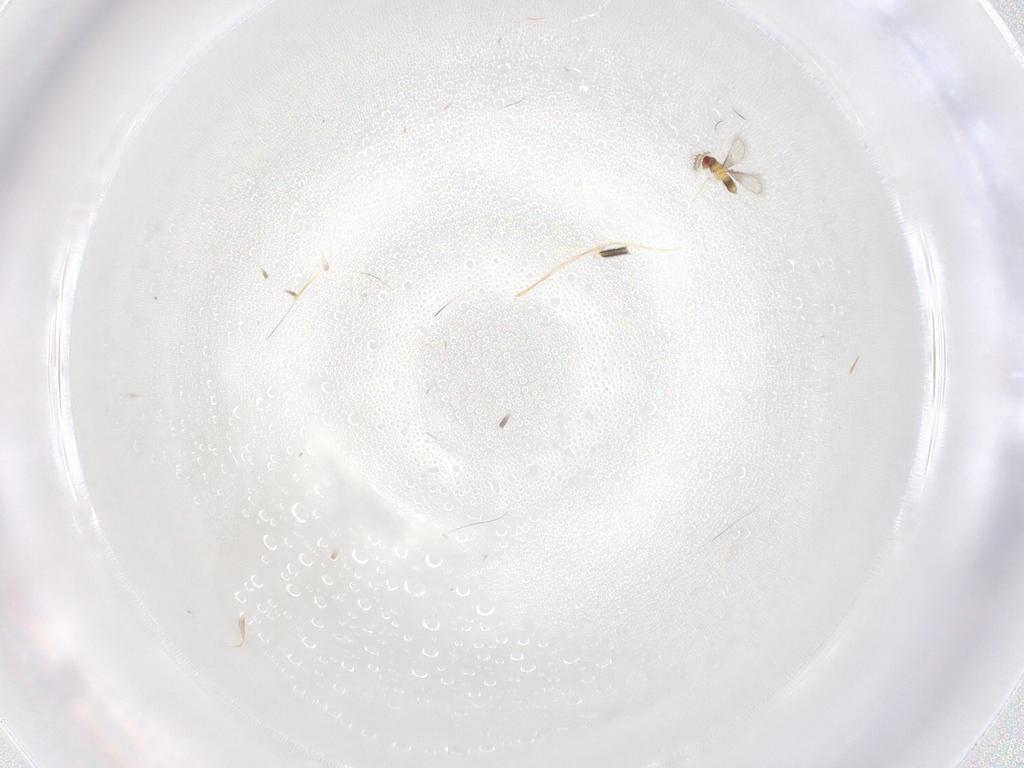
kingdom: Animalia
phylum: Arthropoda
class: Insecta
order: Hymenoptera
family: Trichogrammatidae
